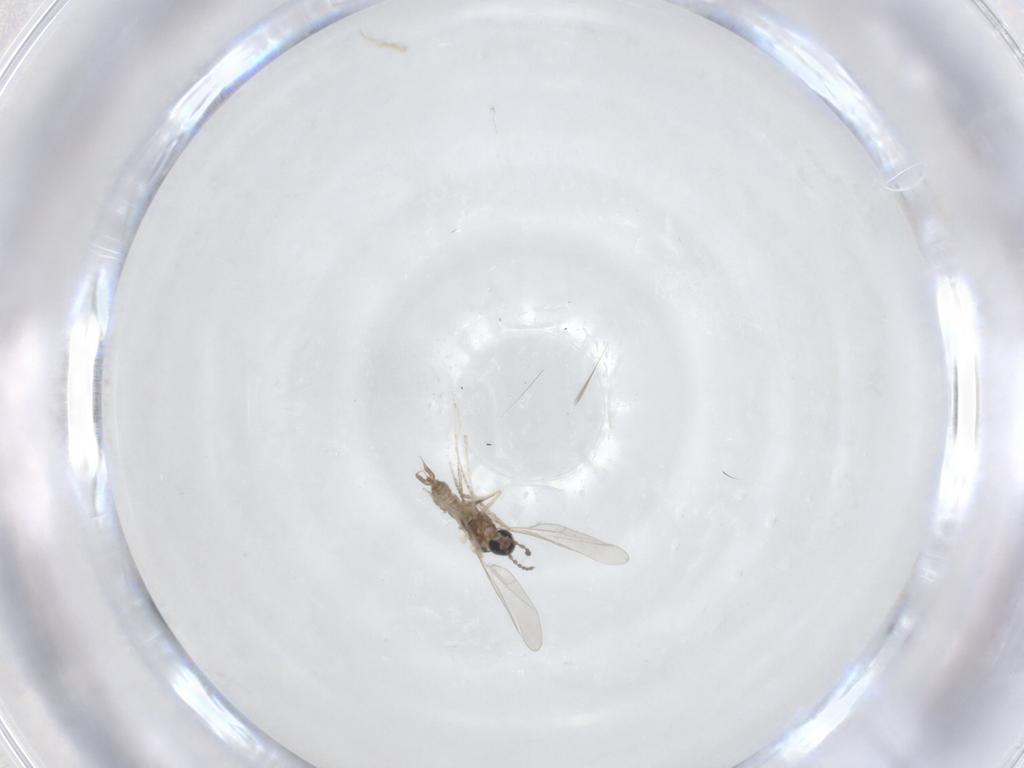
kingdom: Animalia
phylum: Arthropoda
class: Insecta
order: Diptera
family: Cecidomyiidae
